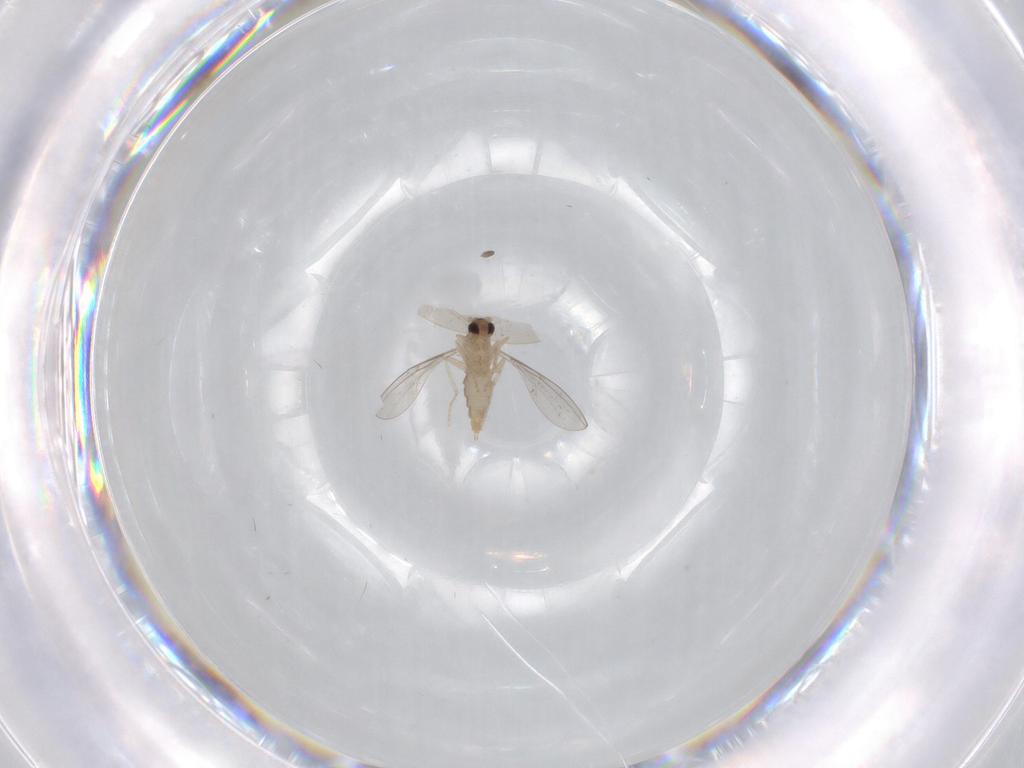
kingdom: Animalia
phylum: Arthropoda
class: Insecta
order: Diptera
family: Cecidomyiidae
